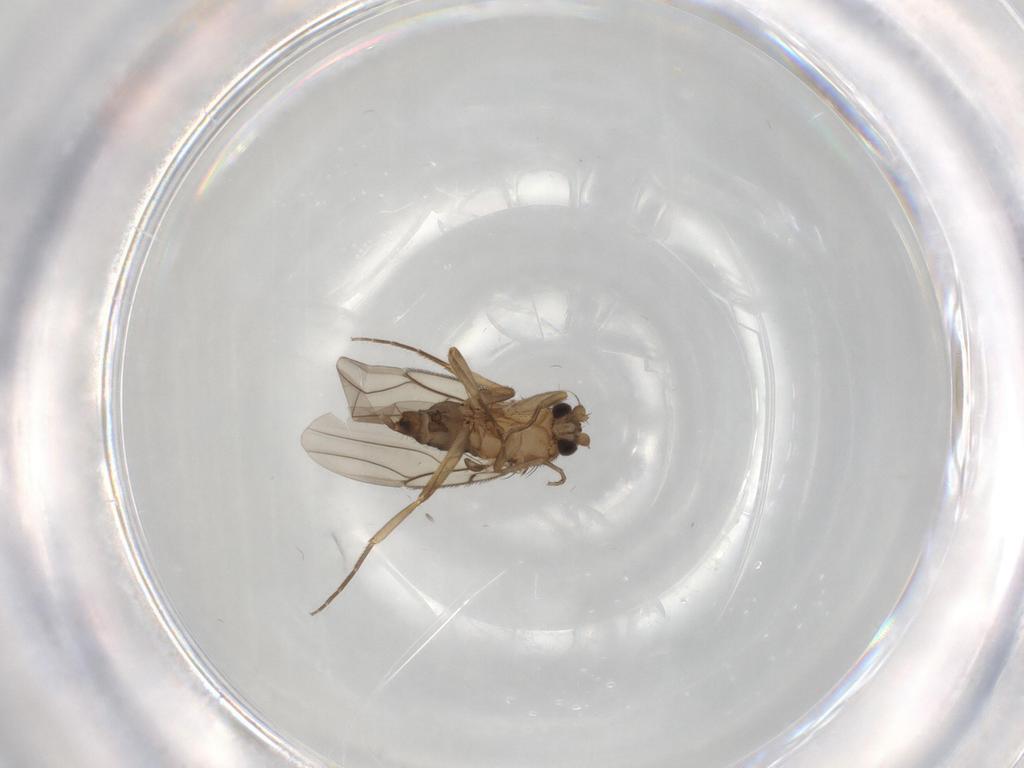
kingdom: Animalia
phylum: Arthropoda
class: Insecta
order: Diptera
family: Phoridae
